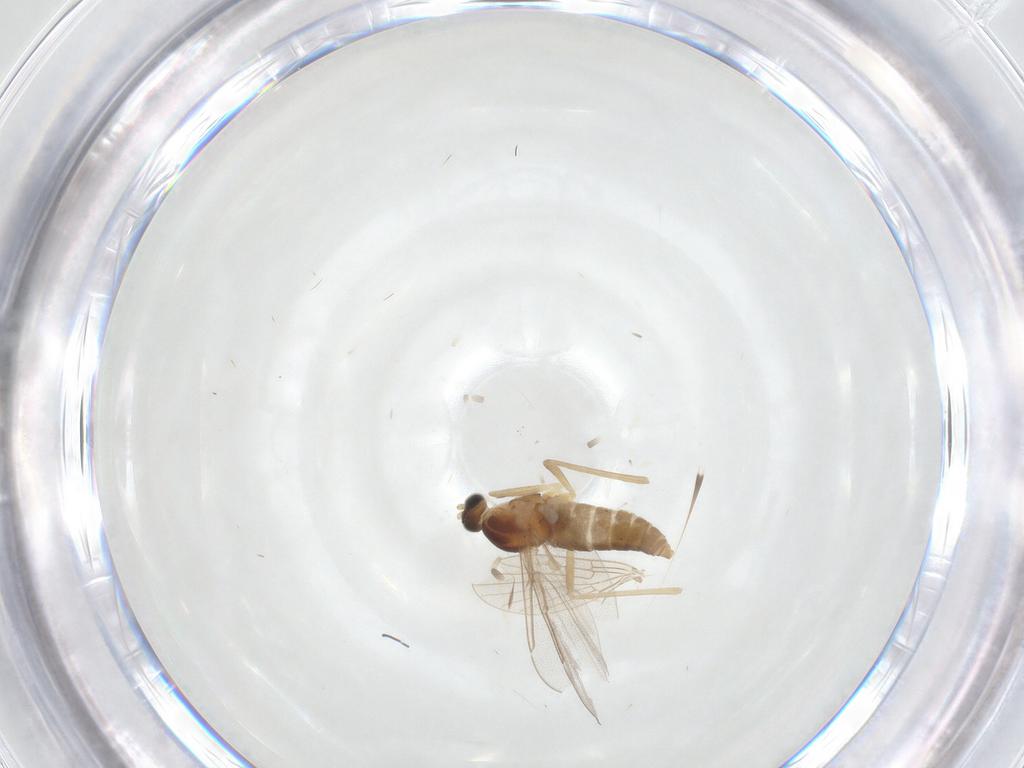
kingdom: Animalia
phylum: Arthropoda
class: Insecta
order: Diptera
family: Cecidomyiidae
